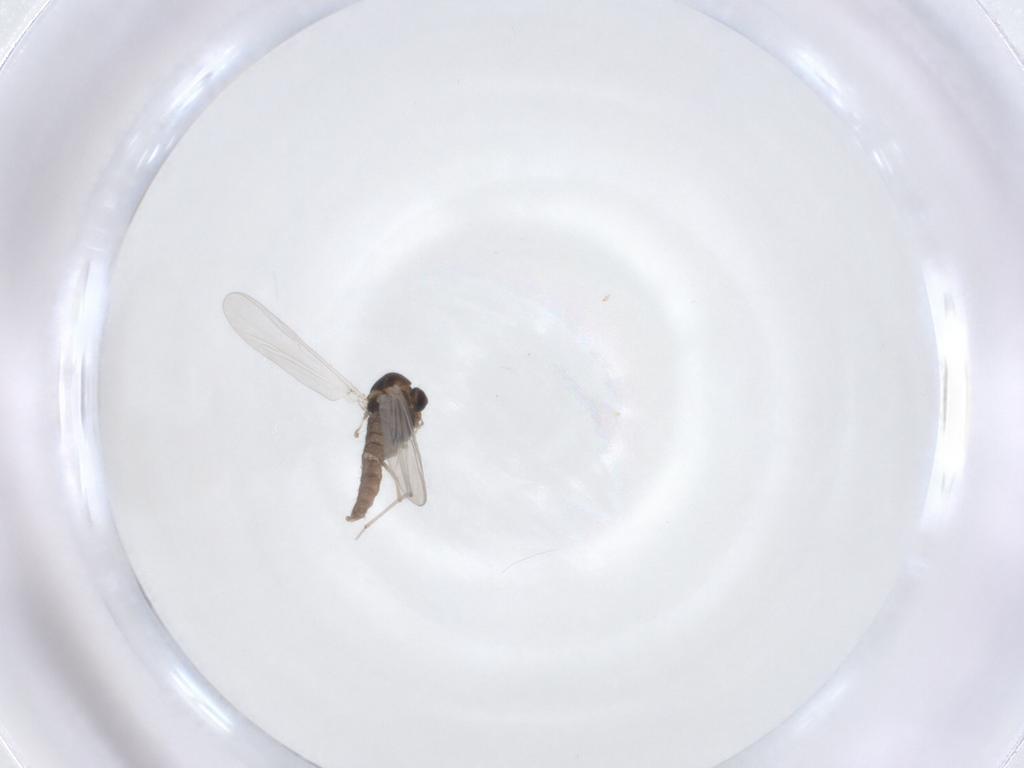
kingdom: Animalia
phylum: Arthropoda
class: Insecta
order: Diptera
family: Chironomidae
